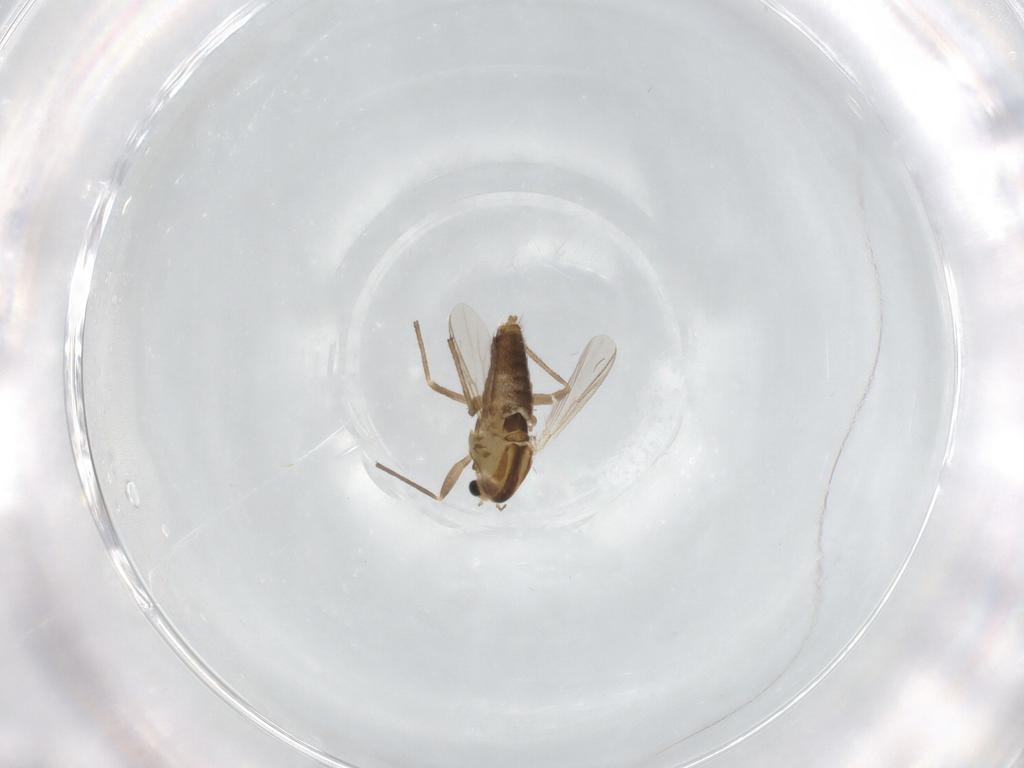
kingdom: Animalia
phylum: Arthropoda
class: Insecta
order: Diptera
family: Chironomidae
